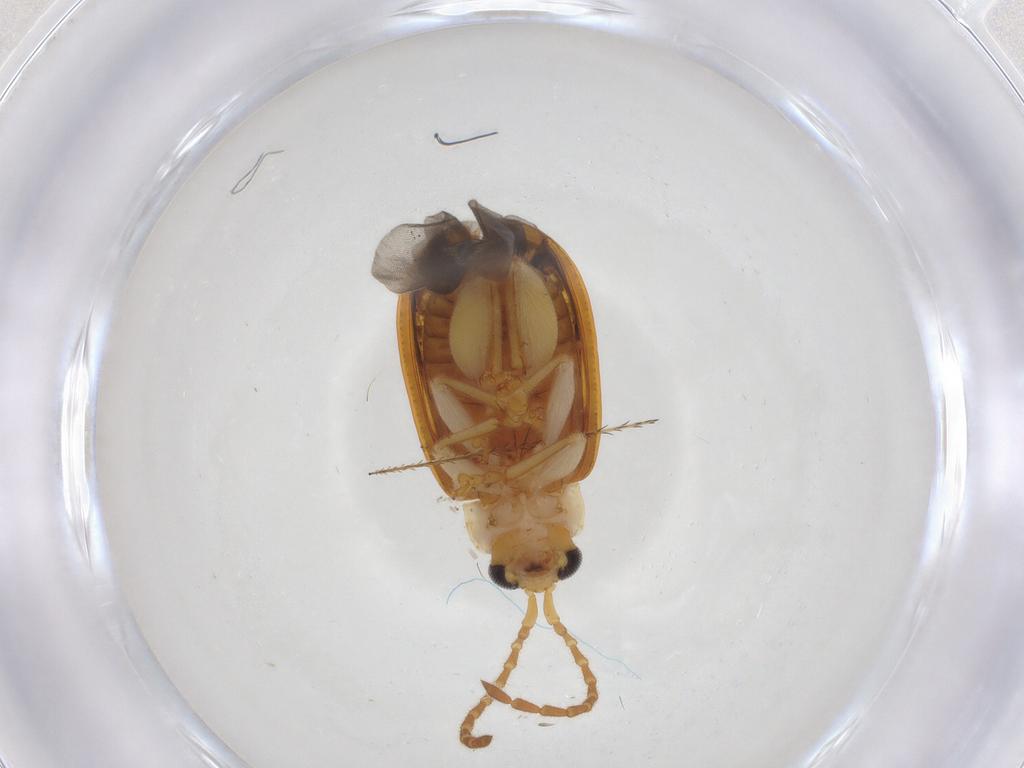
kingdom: Animalia
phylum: Arthropoda
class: Insecta
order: Coleoptera
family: Chrysomelidae
